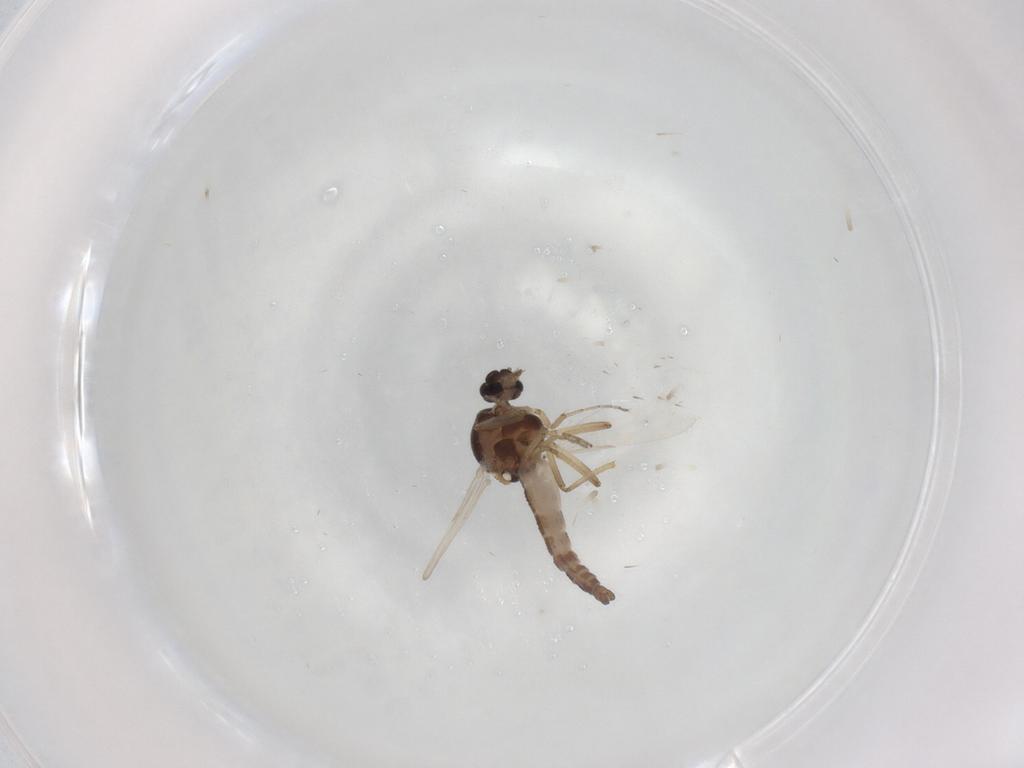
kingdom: Animalia
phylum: Arthropoda
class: Insecta
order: Diptera
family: Ceratopogonidae
